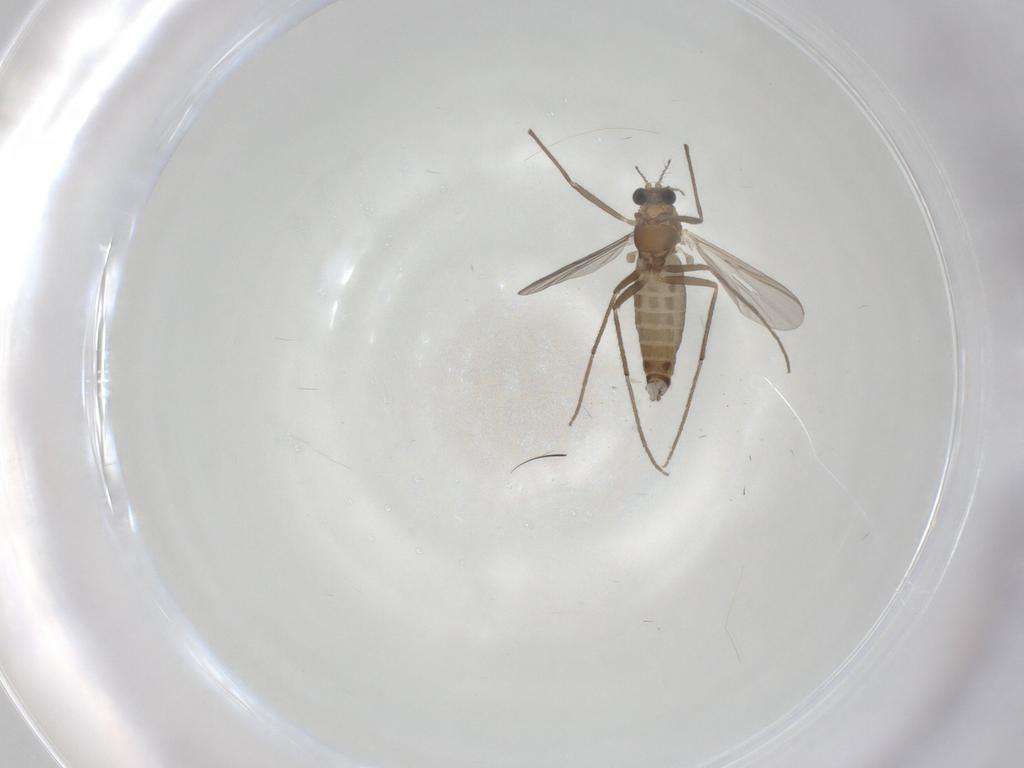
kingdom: Animalia
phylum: Arthropoda
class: Insecta
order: Diptera
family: Chironomidae
